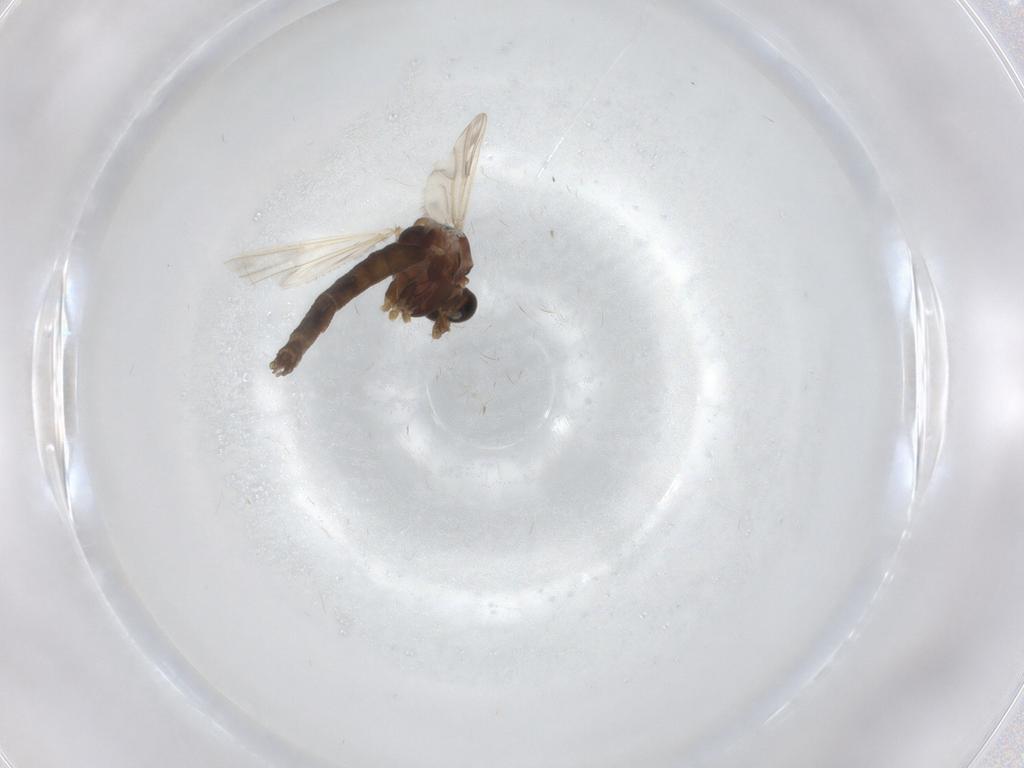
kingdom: Animalia
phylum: Arthropoda
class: Insecta
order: Diptera
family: Chironomidae
